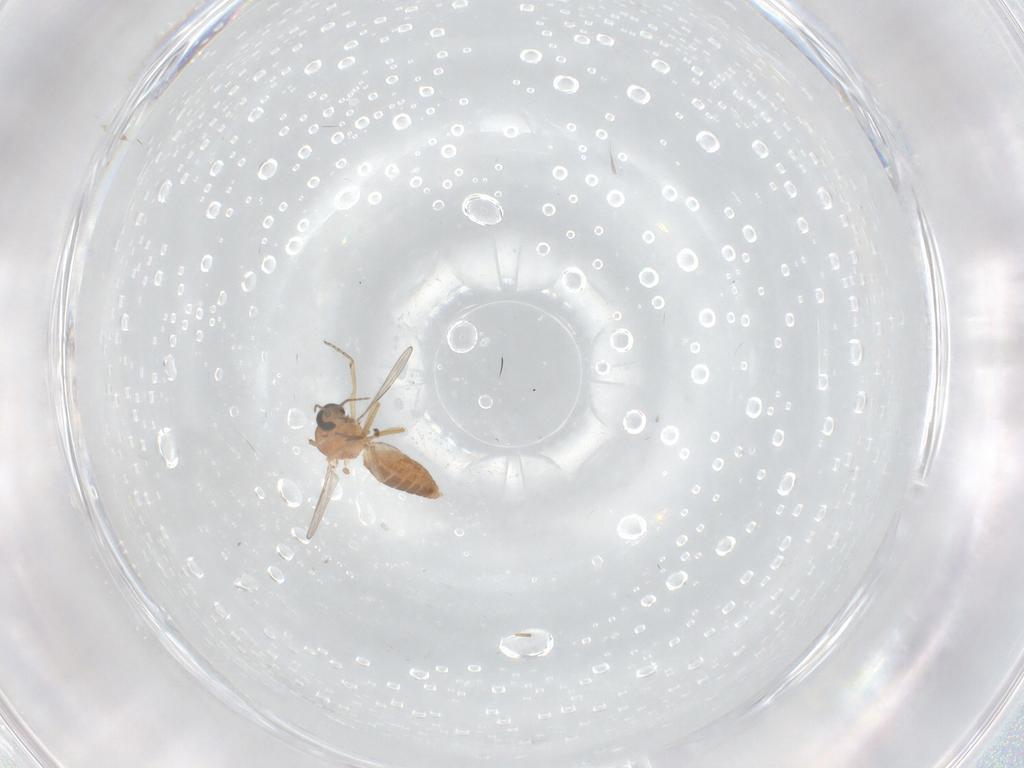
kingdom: Animalia
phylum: Arthropoda
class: Insecta
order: Diptera
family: Ceratopogonidae
